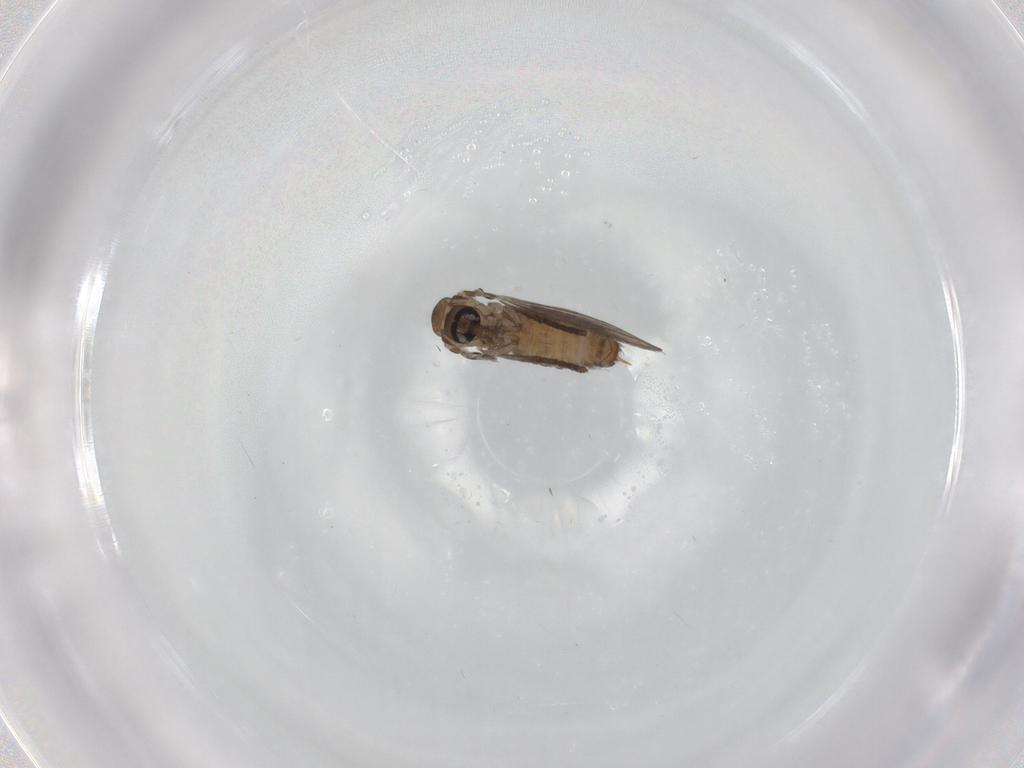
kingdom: Animalia
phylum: Arthropoda
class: Insecta
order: Diptera
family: Psychodidae
